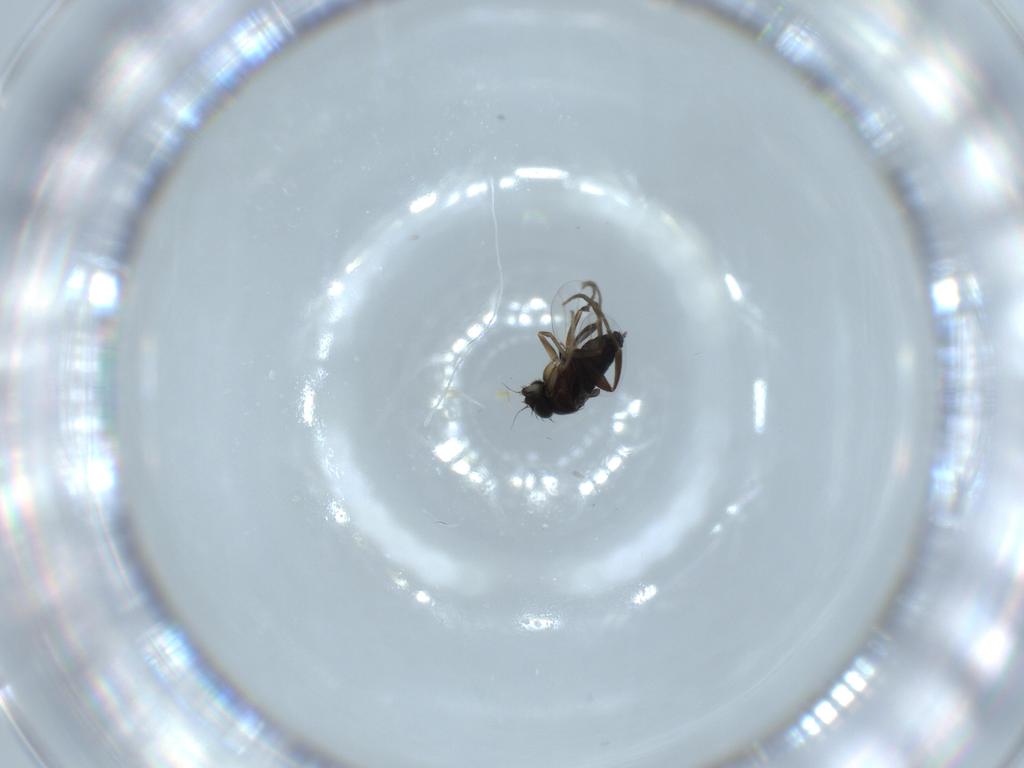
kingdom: Animalia
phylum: Arthropoda
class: Insecta
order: Diptera
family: Phoridae
